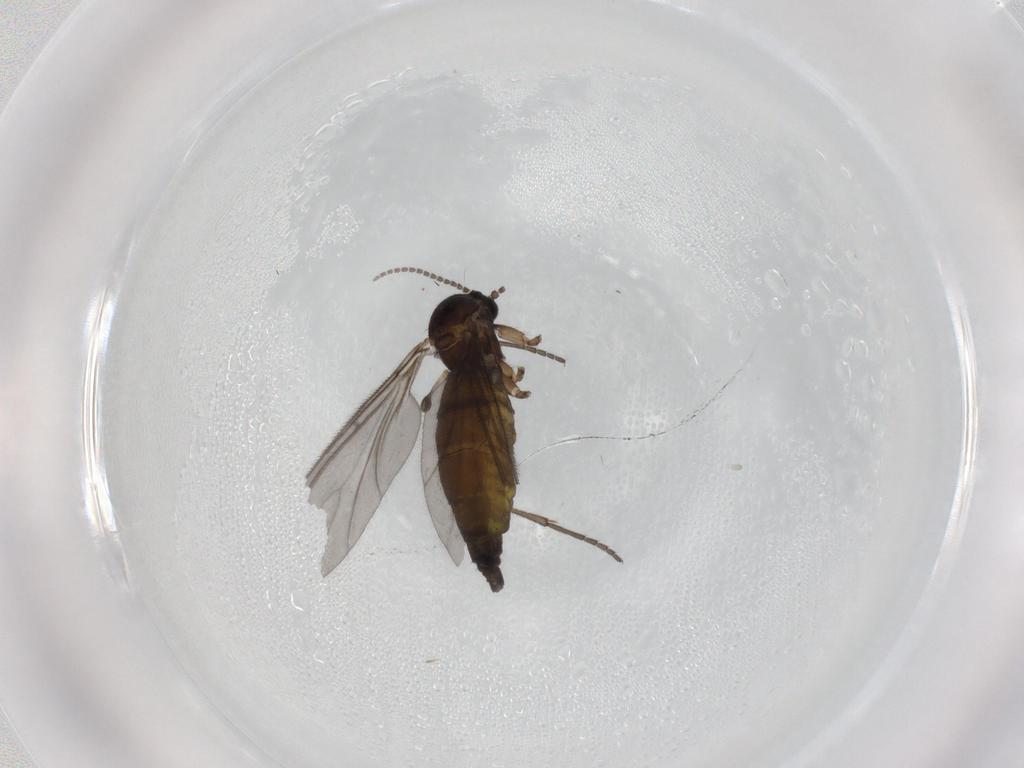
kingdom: Animalia
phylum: Arthropoda
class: Insecta
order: Diptera
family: Sciaridae
